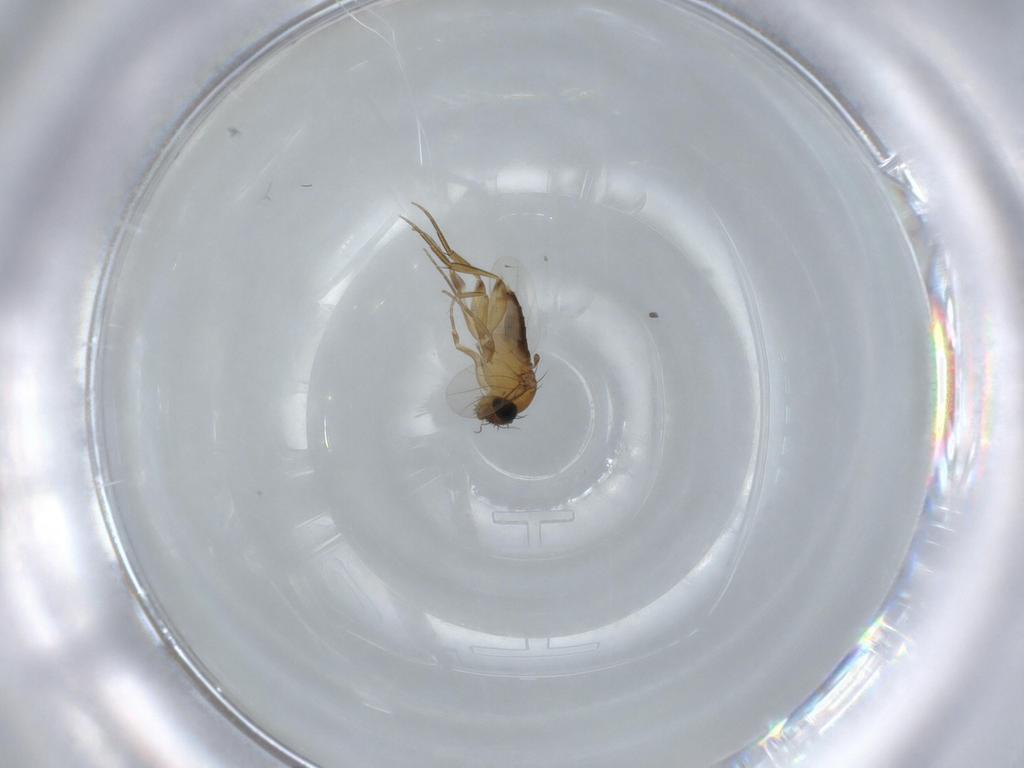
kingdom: Animalia
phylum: Arthropoda
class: Insecta
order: Diptera
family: Phoridae
